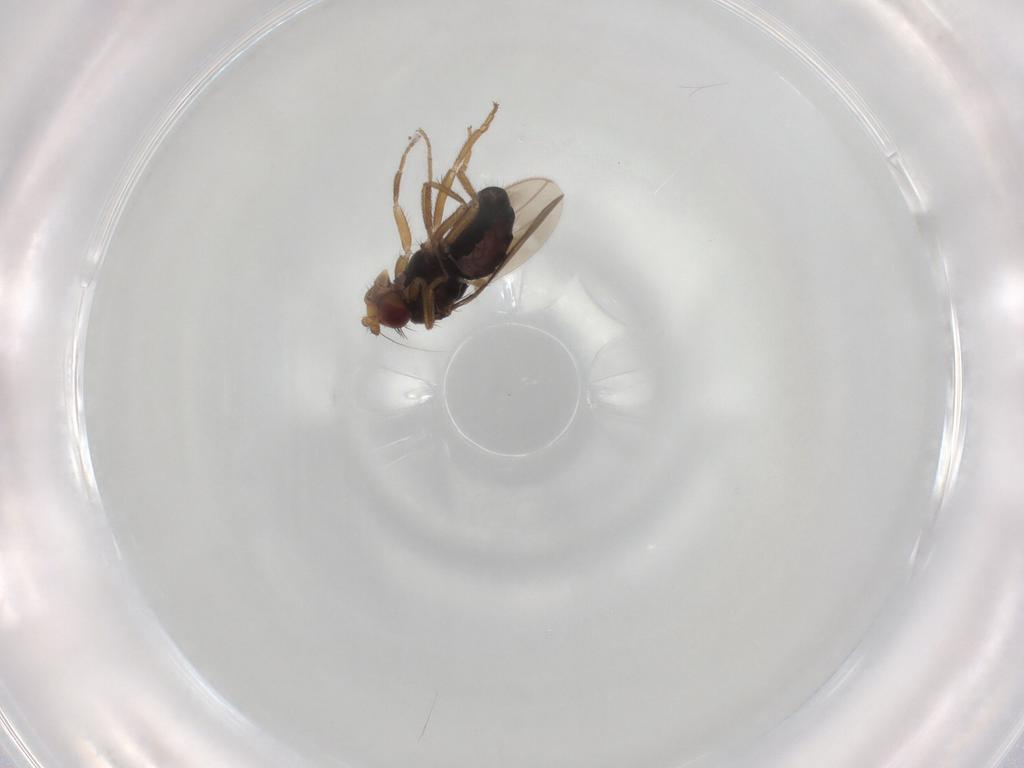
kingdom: Animalia
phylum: Arthropoda
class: Insecta
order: Diptera
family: Sphaeroceridae
